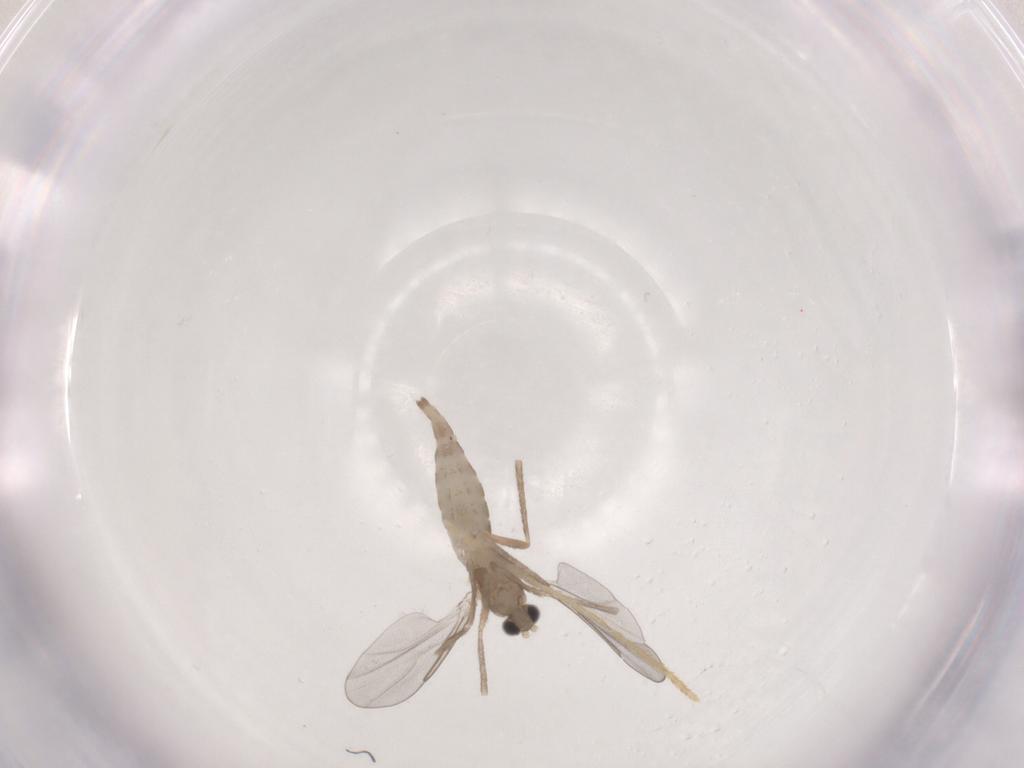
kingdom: Animalia
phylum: Arthropoda
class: Insecta
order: Diptera
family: Cecidomyiidae
